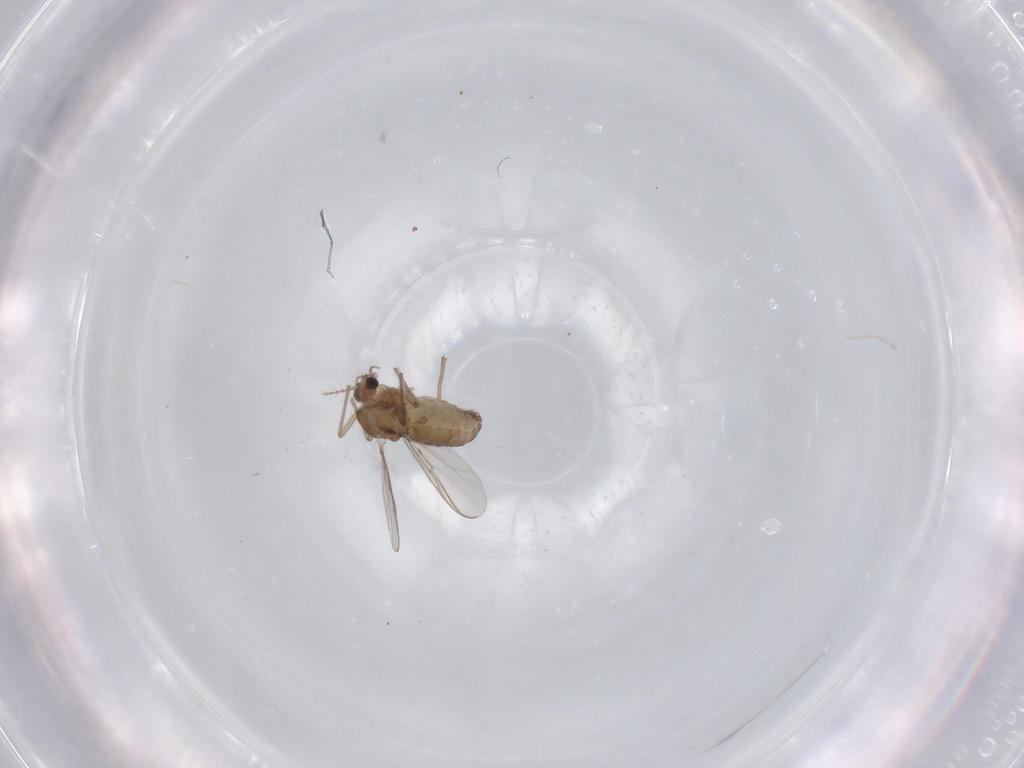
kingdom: Animalia
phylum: Arthropoda
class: Insecta
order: Diptera
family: Chironomidae
